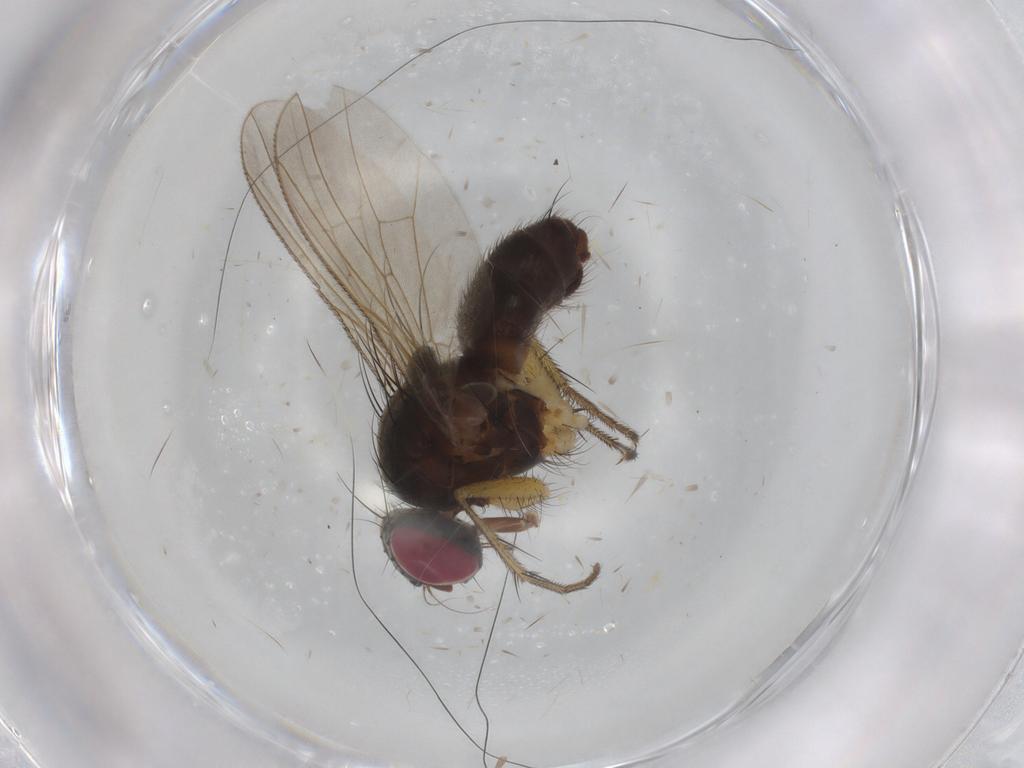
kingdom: Animalia
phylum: Arthropoda
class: Insecta
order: Diptera
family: Muscidae
